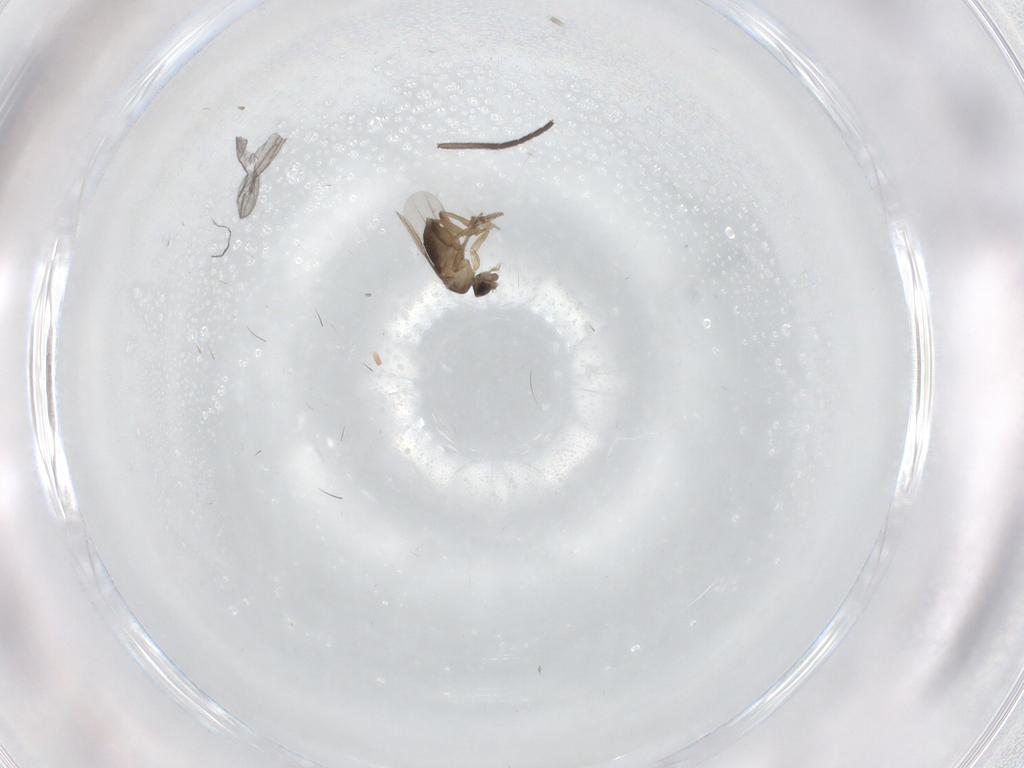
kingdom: Animalia
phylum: Arthropoda
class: Insecta
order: Diptera
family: Phoridae
